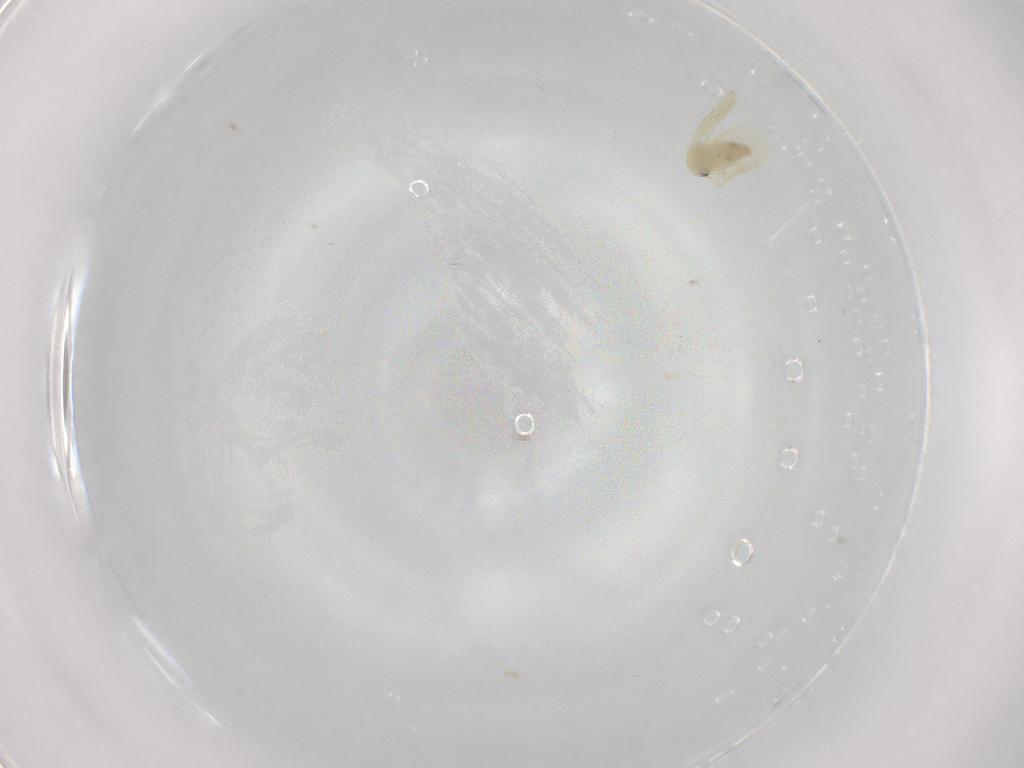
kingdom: Animalia
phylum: Arthropoda
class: Insecta
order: Hemiptera
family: Aleyrodidae
